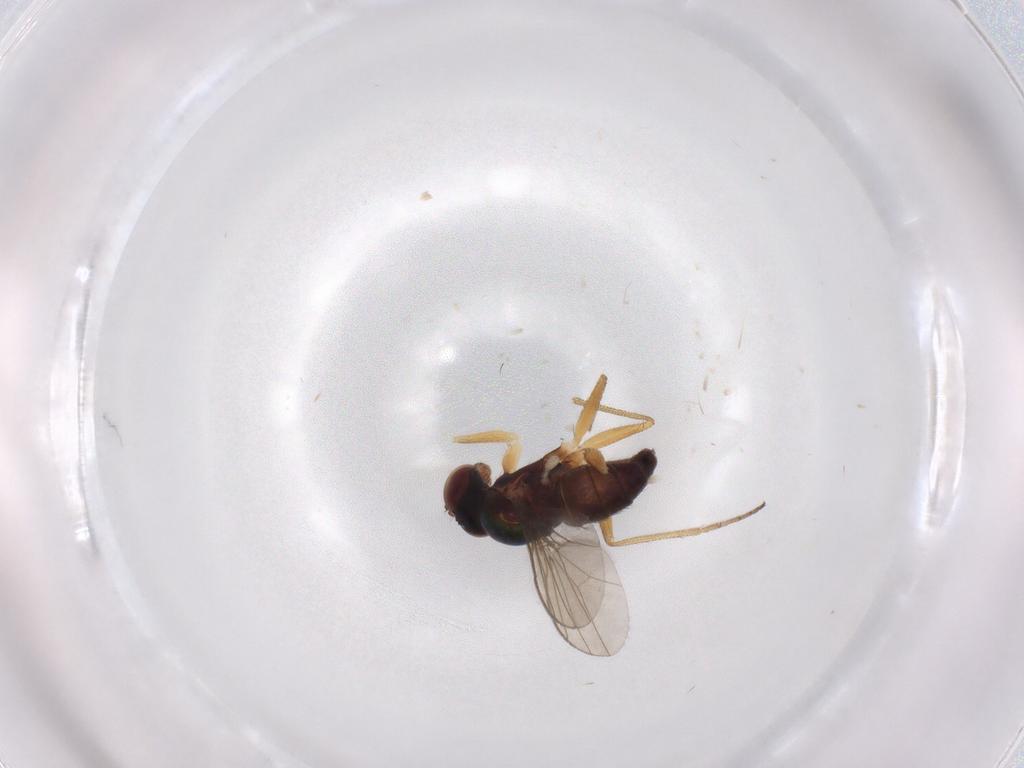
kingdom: Animalia
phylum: Arthropoda
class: Insecta
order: Diptera
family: Dolichopodidae
